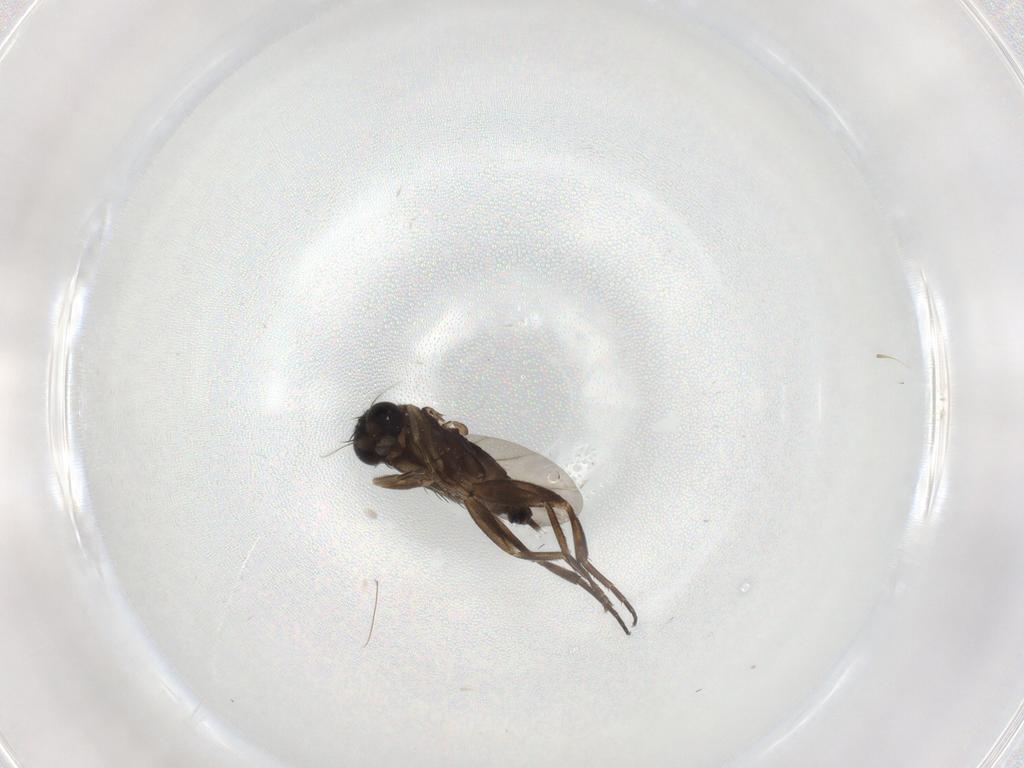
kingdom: Animalia
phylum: Arthropoda
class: Insecta
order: Diptera
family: Phoridae
